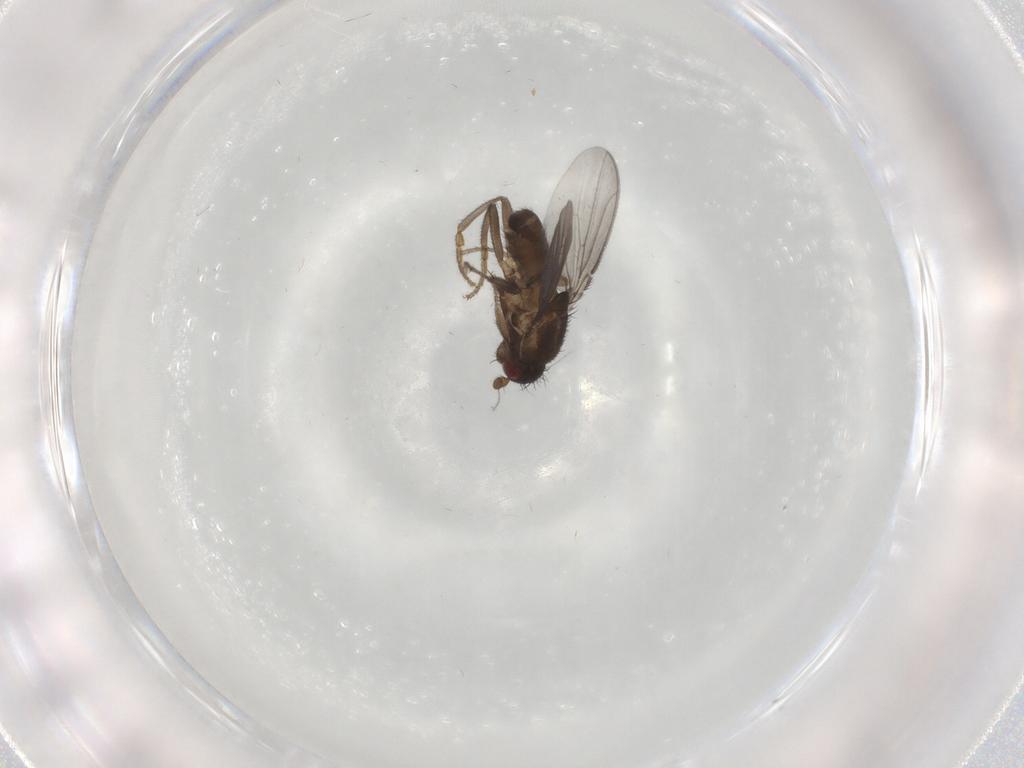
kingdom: Animalia
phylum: Arthropoda
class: Insecta
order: Diptera
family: Sphaeroceridae
